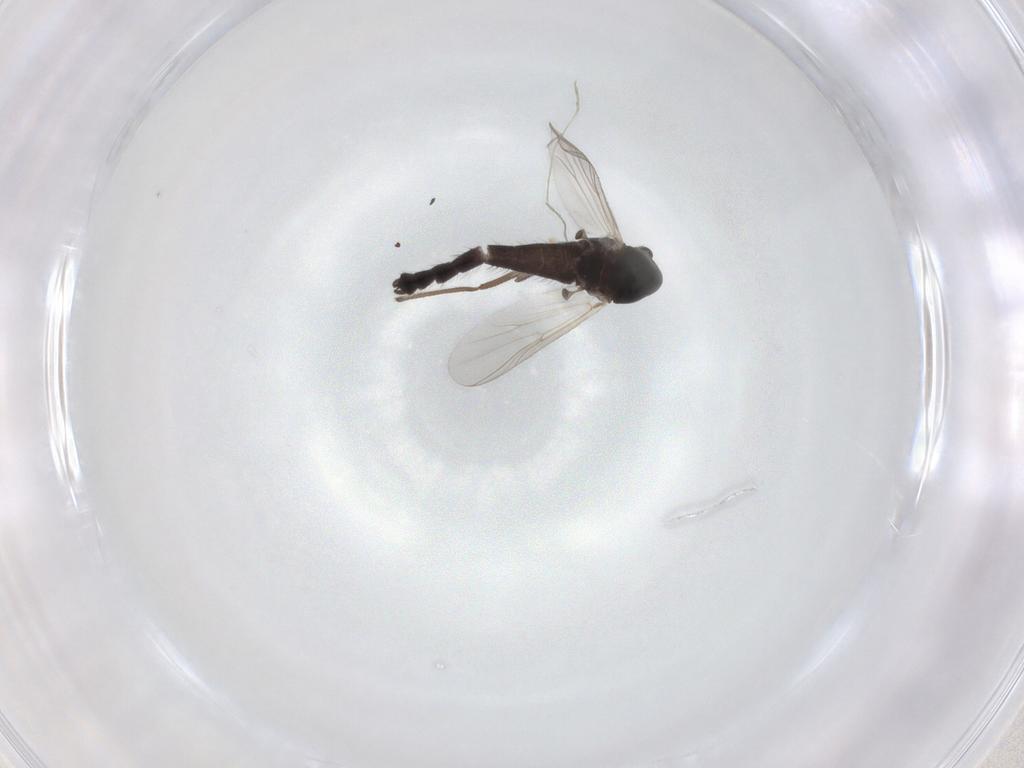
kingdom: Animalia
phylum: Arthropoda
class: Insecta
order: Diptera
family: Chironomidae
